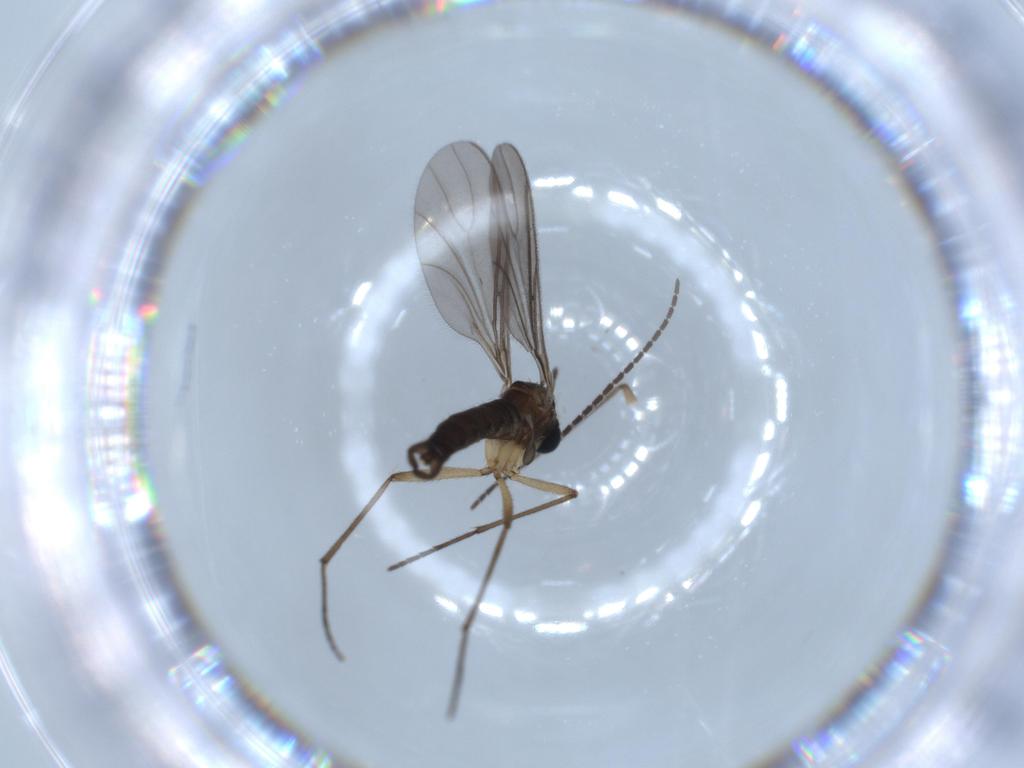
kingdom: Animalia
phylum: Arthropoda
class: Insecta
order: Diptera
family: Sciaridae
